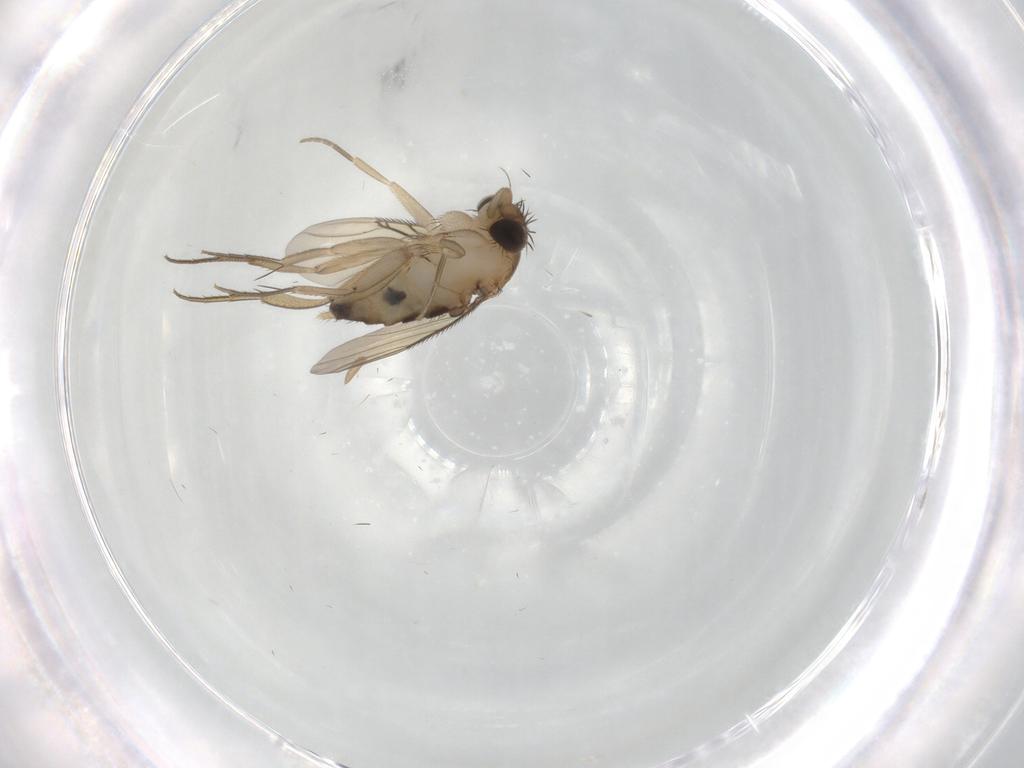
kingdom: Animalia
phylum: Arthropoda
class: Insecta
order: Diptera
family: Phoridae
